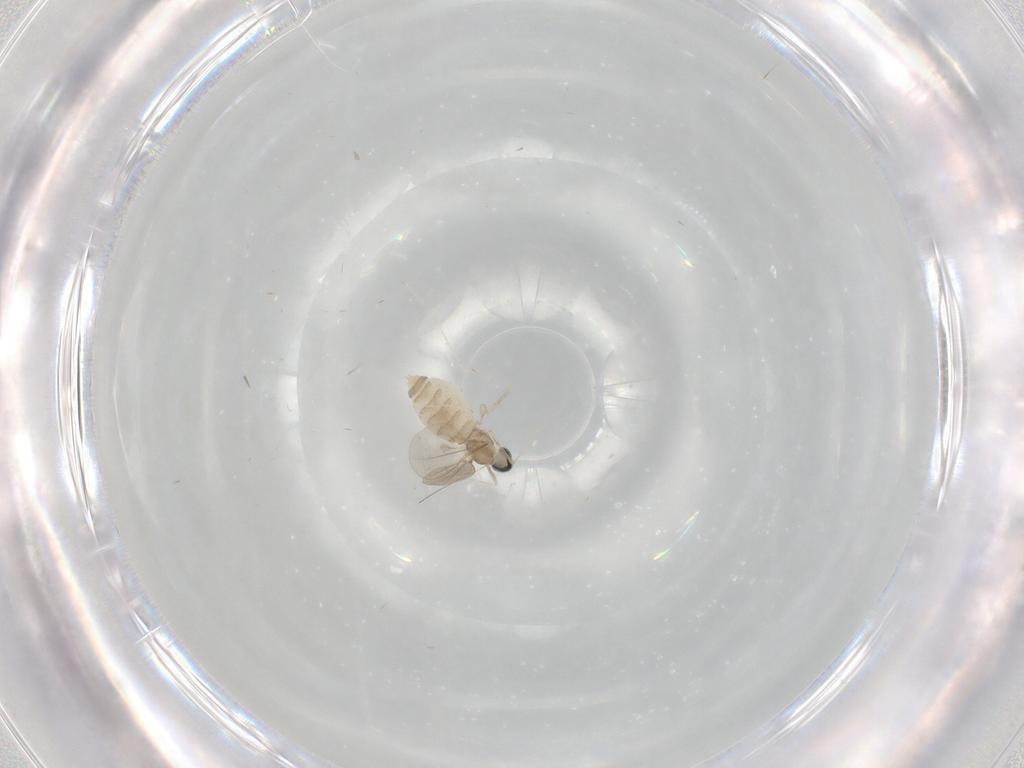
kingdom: Animalia
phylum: Arthropoda
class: Insecta
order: Diptera
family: Cecidomyiidae
